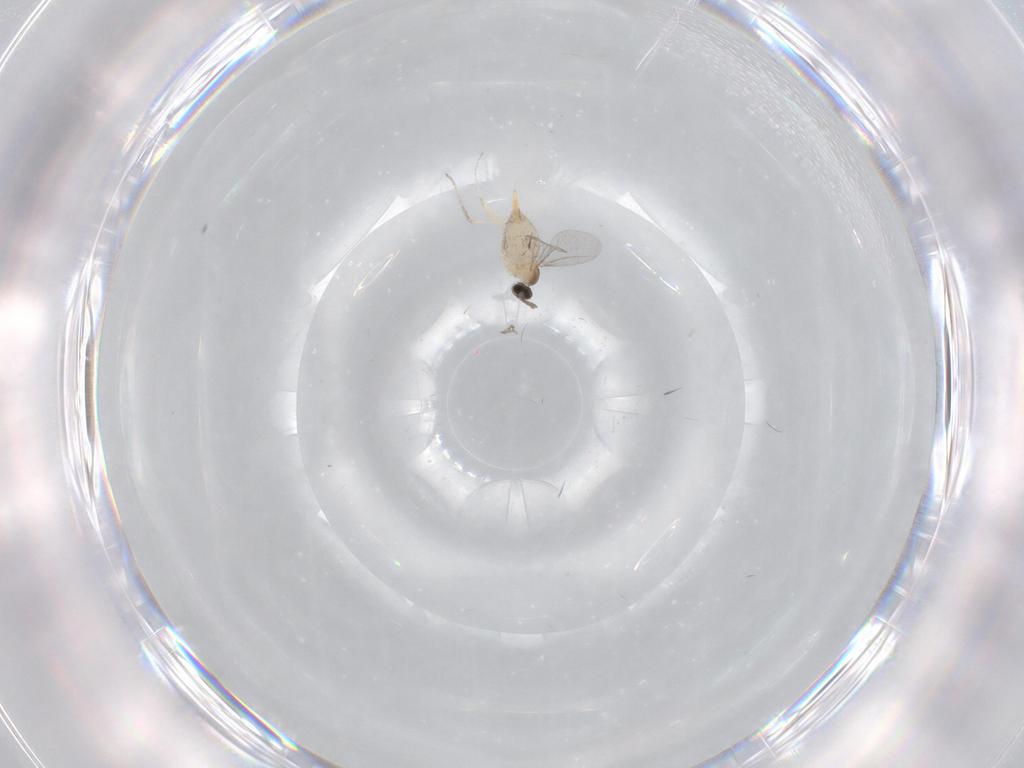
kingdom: Animalia
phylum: Arthropoda
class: Insecta
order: Diptera
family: Cecidomyiidae
